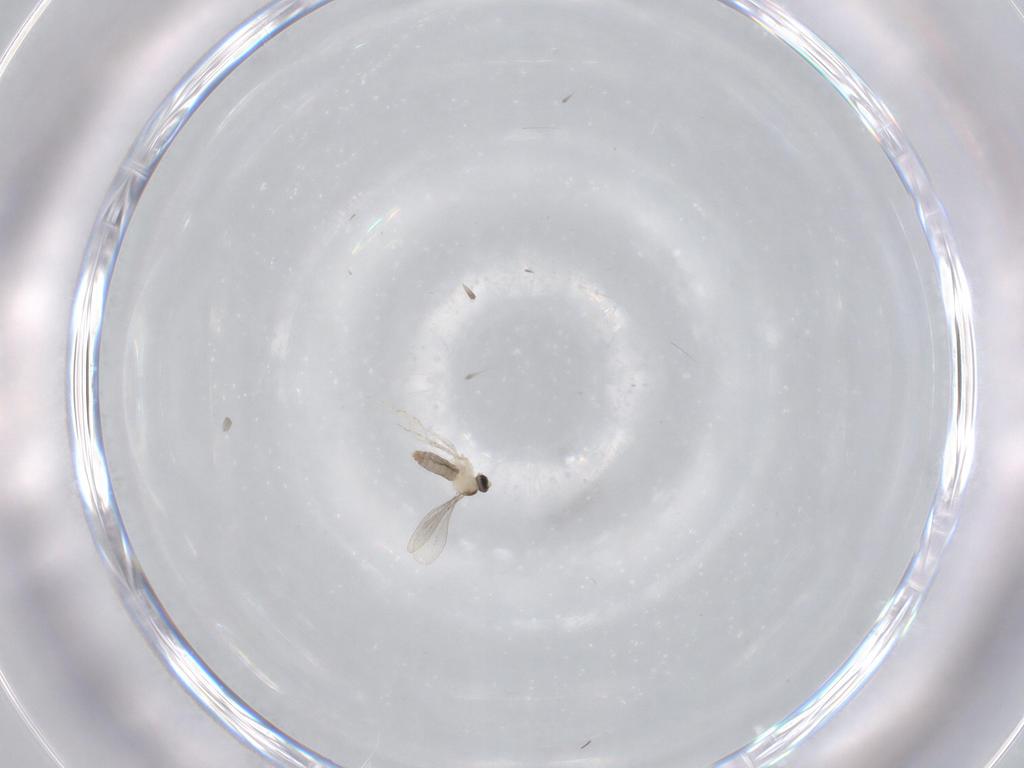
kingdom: Animalia
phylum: Arthropoda
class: Insecta
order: Diptera
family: Cecidomyiidae
